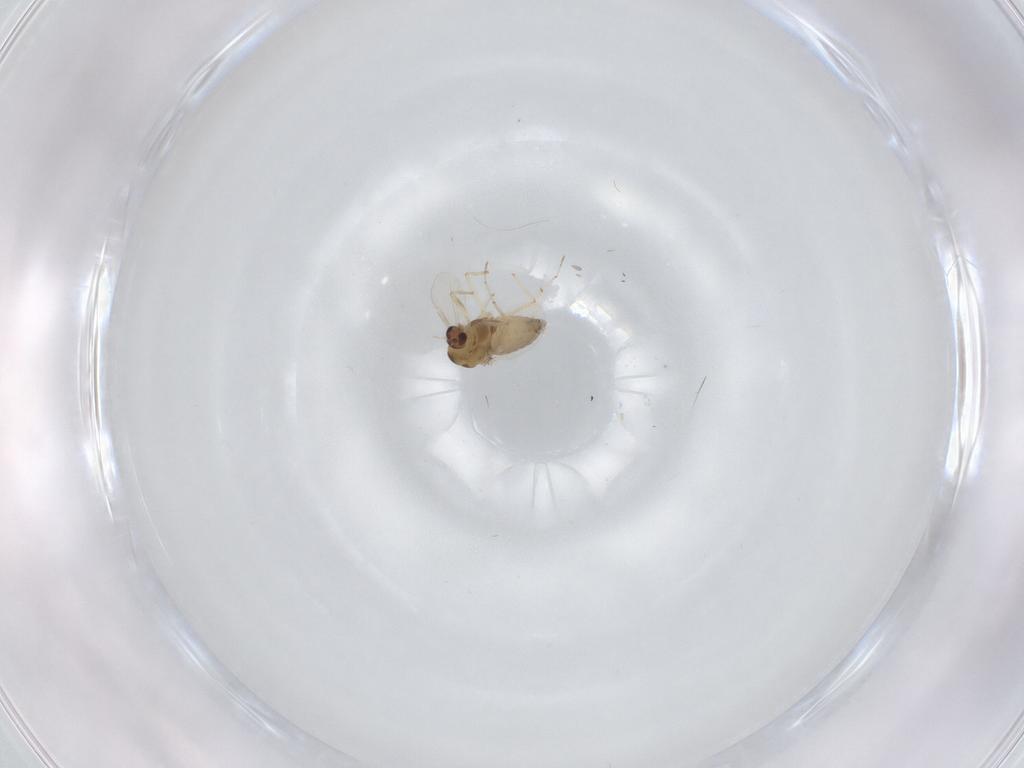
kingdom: Animalia
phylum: Arthropoda
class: Insecta
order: Diptera
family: Chironomidae
